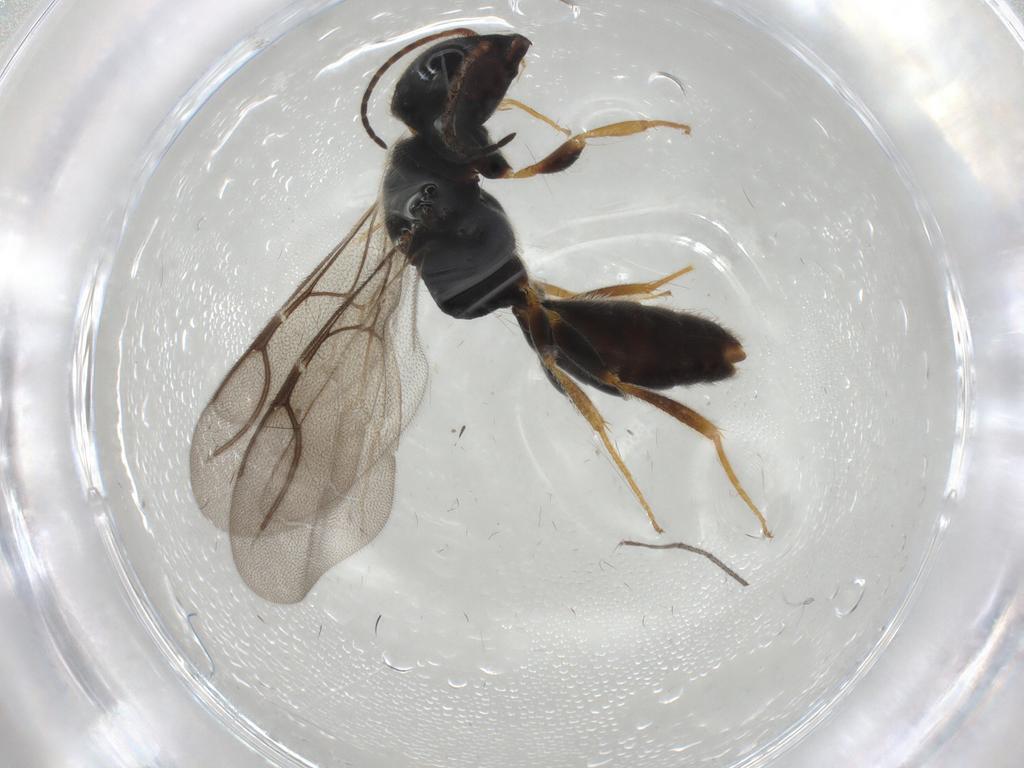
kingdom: Animalia
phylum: Arthropoda
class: Insecta
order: Hymenoptera
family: Bethylidae
